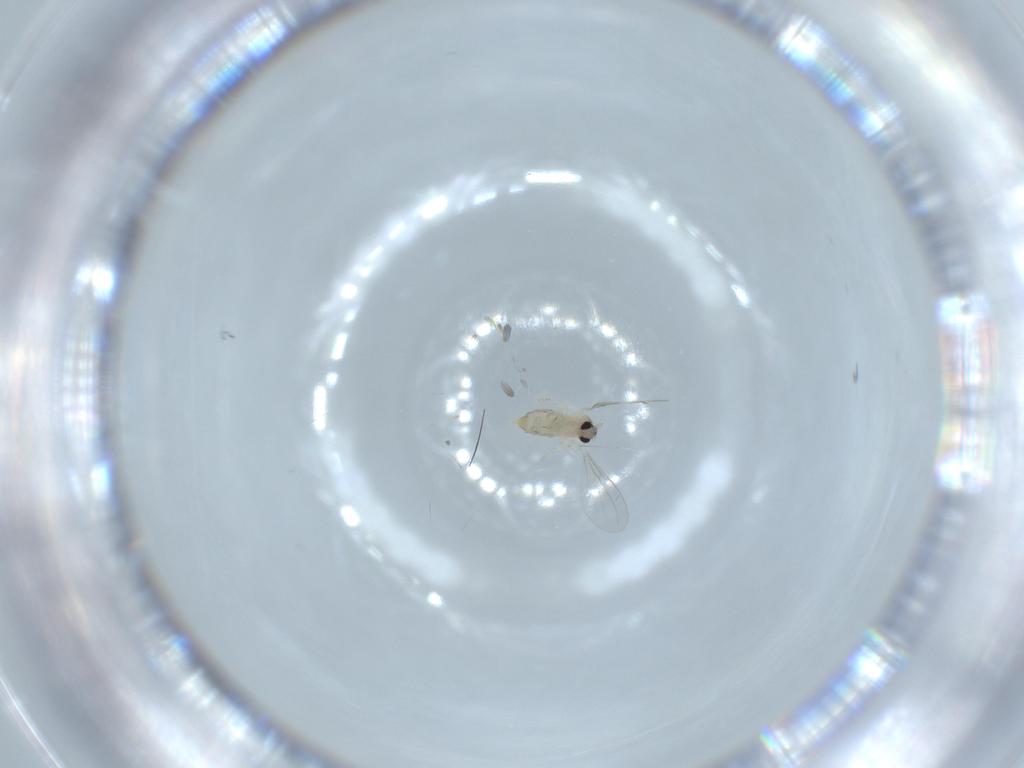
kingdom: Animalia
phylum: Arthropoda
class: Insecta
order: Diptera
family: Cecidomyiidae
